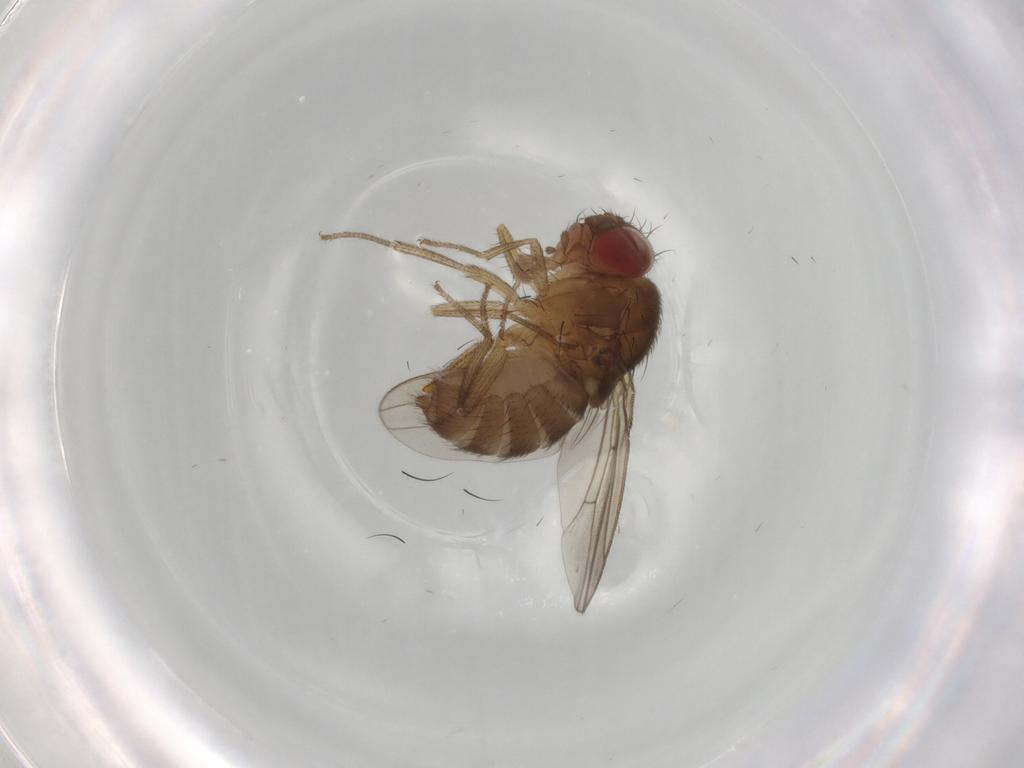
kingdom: Animalia
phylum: Arthropoda
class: Insecta
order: Diptera
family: Drosophilidae
